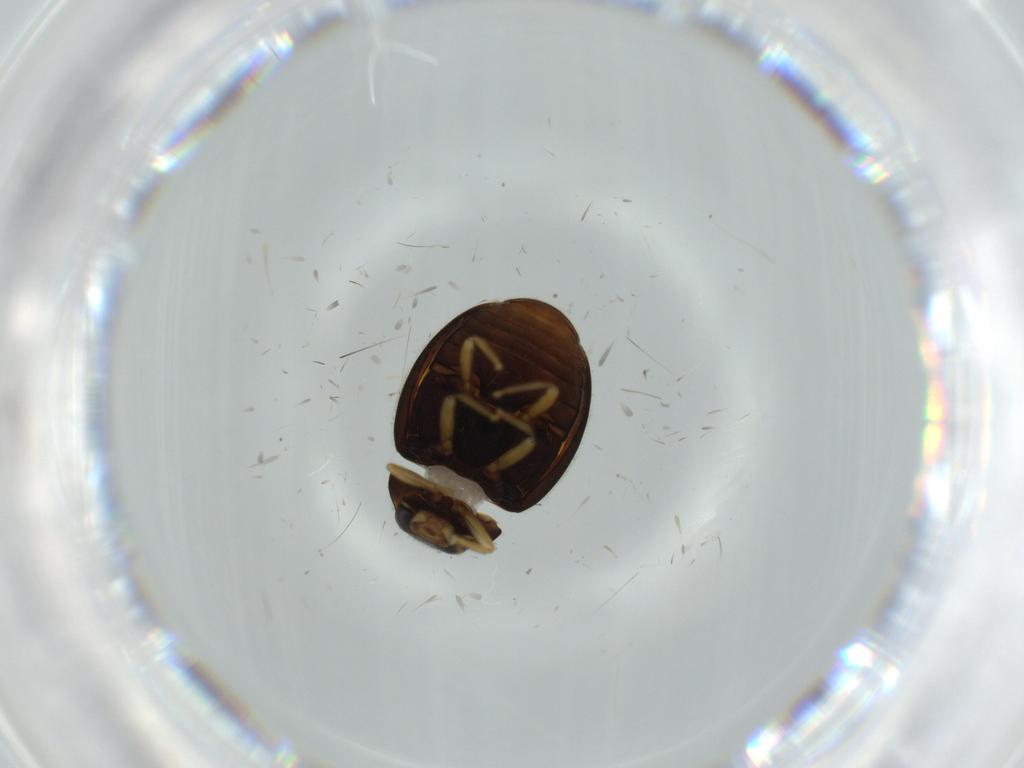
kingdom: Animalia
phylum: Arthropoda
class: Insecta
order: Coleoptera
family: Coccinellidae
